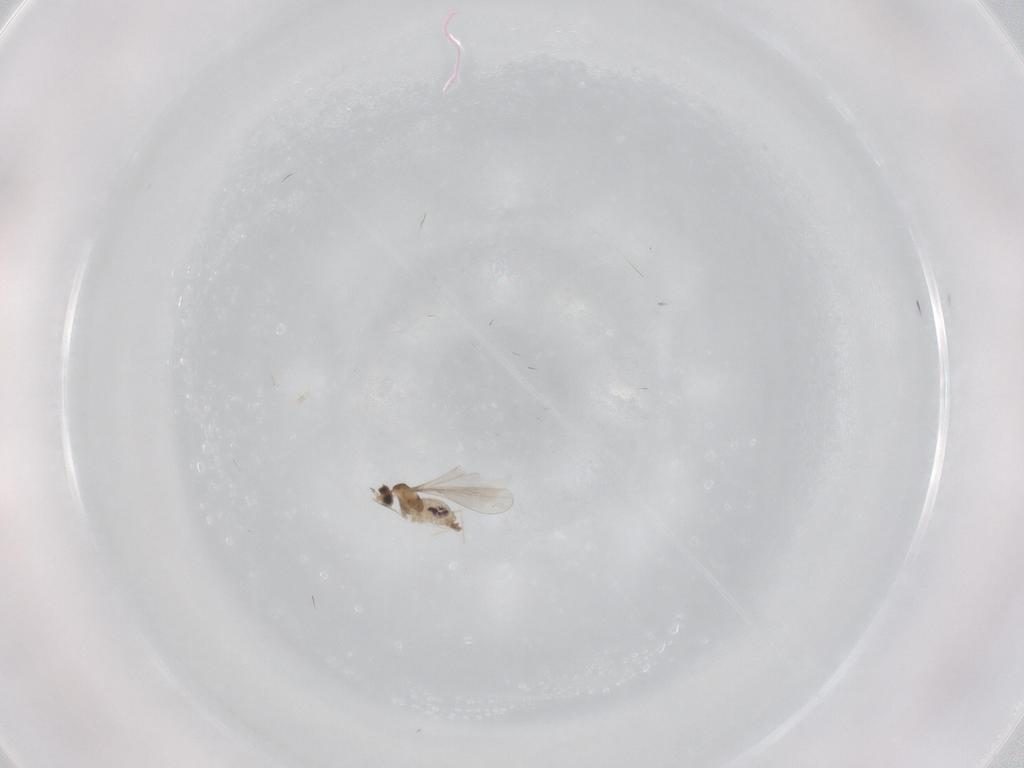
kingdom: Animalia
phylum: Arthropoda
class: Insecta
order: Diptera
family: Cecidomyiidae
